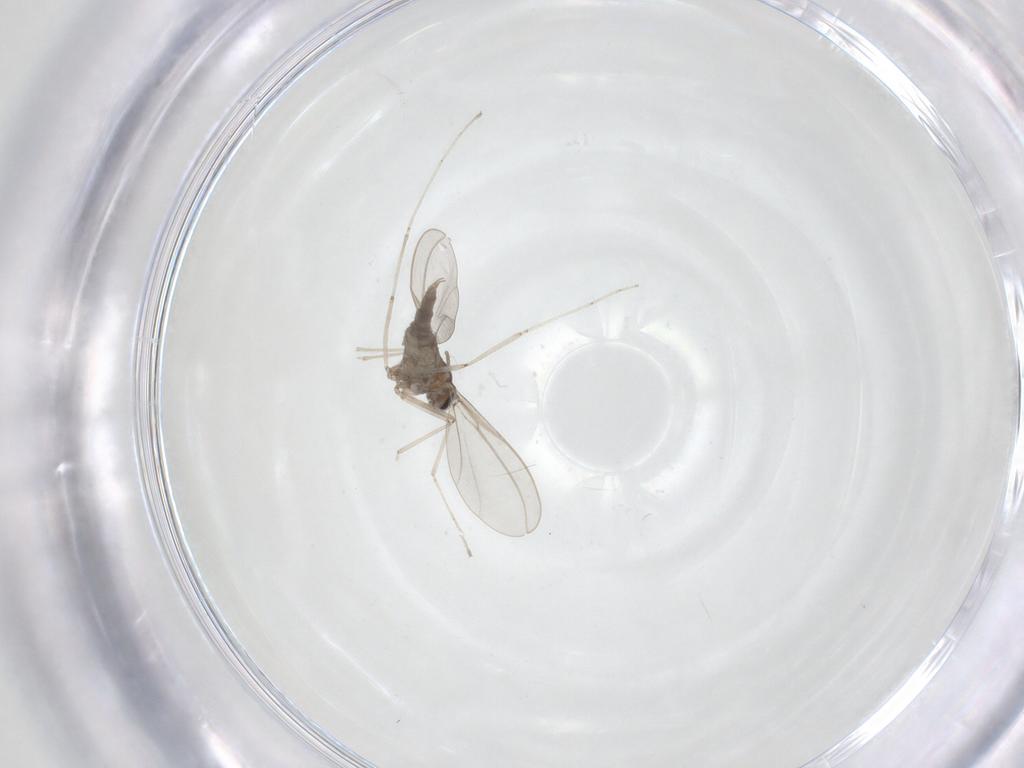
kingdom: Animalia
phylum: Arthropoda
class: Insecta
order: Diptera
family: Cecidomyiidae
